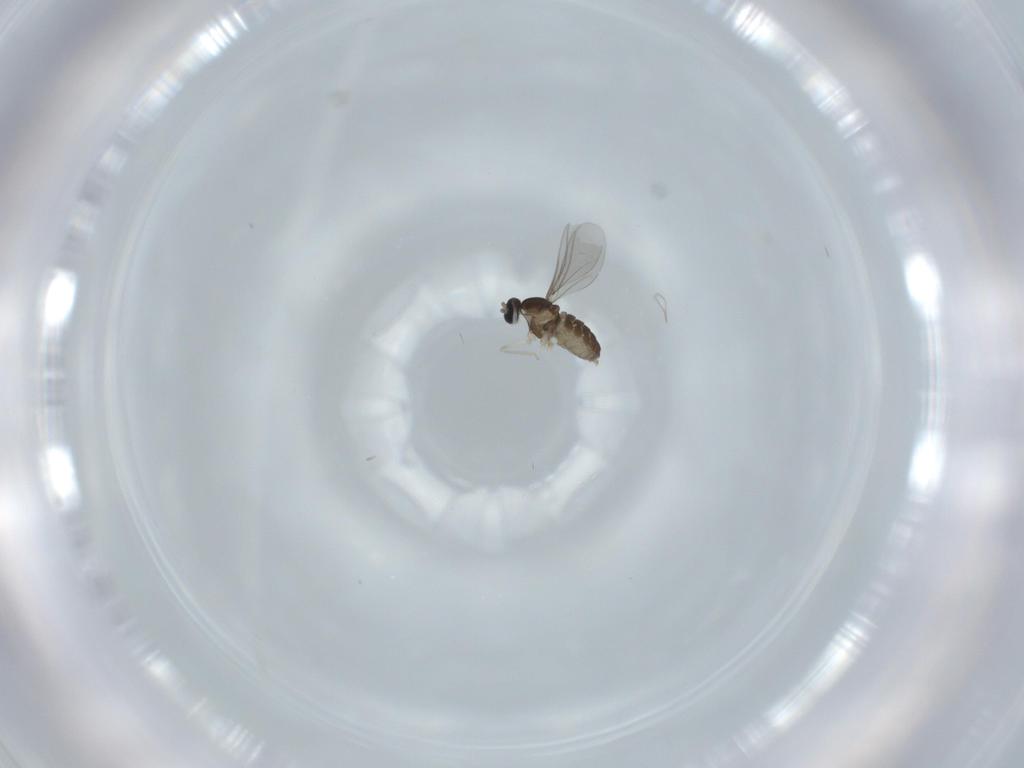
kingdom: Animalia
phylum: Arthropoda
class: Insecta
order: Diptera
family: Cecidomyiidae
